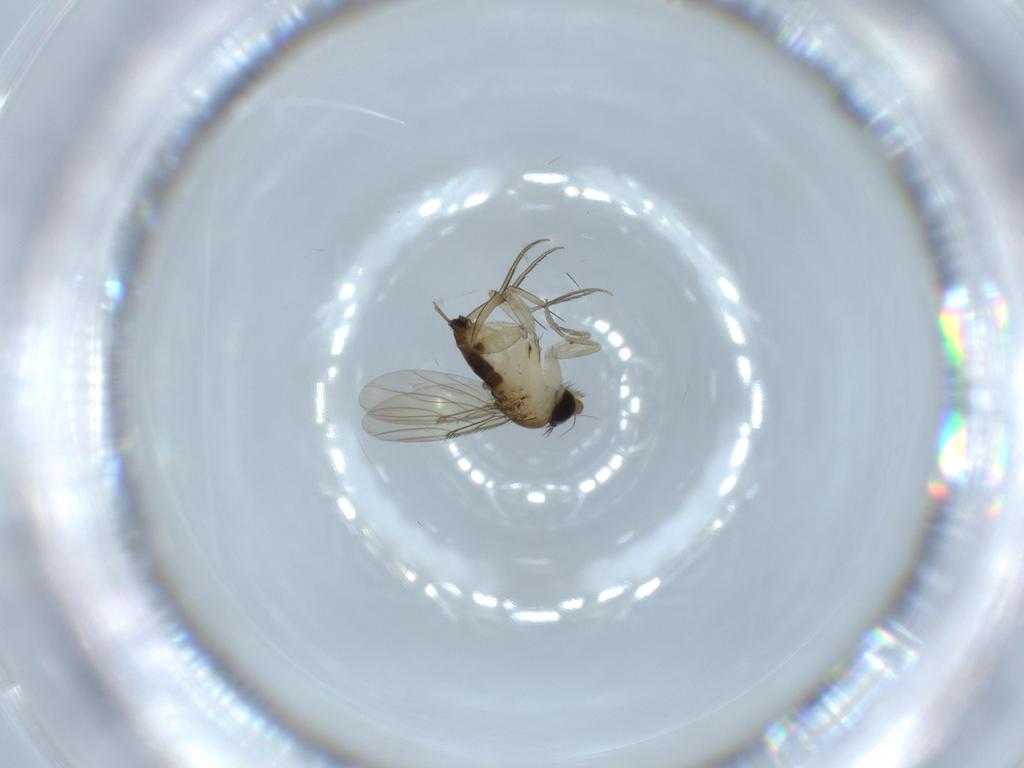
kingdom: Animalia
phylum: Arthropoda
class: Insecta
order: Diptera
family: Phoridae
